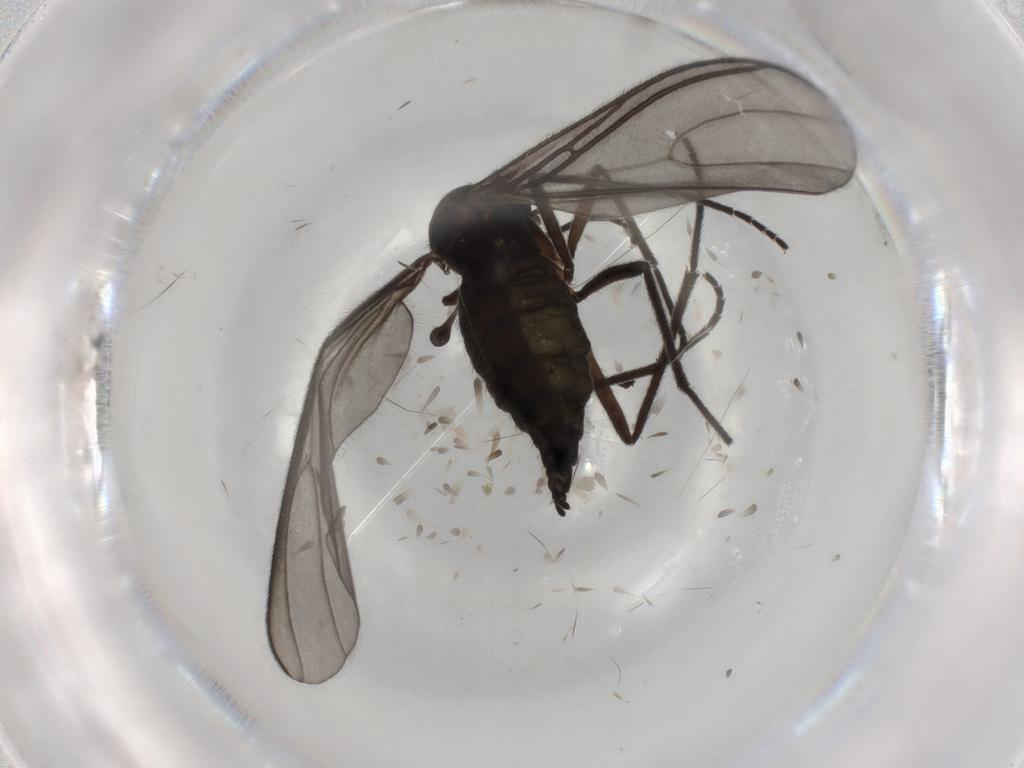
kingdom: Animalia
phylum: Arthropoda
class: Insecta
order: Diptera
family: Sciaridae
